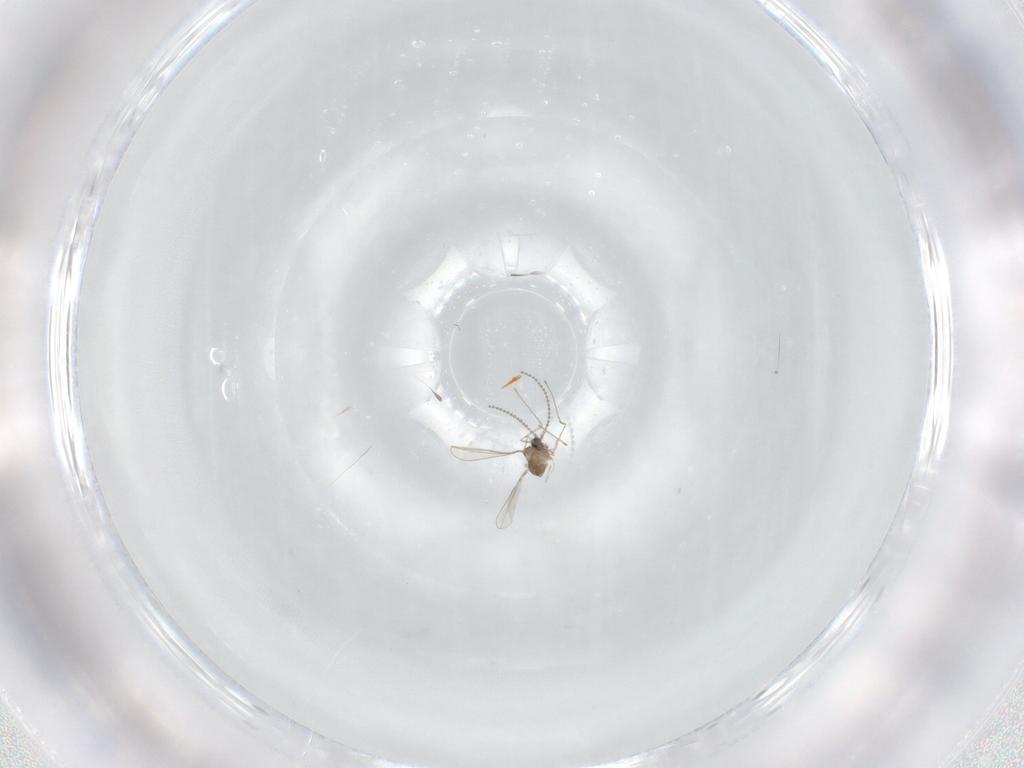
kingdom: Animalia
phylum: Arthropoda
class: Insecta
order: Diptera
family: Cecidomyiidae
